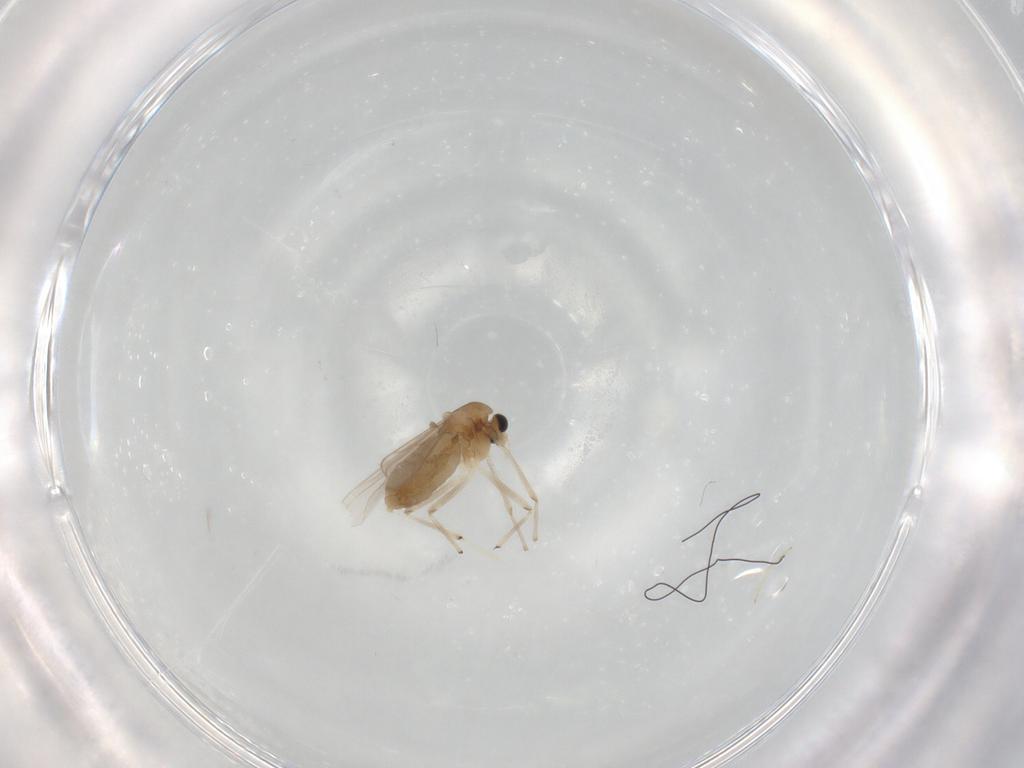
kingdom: Animalia
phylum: Arthropoda
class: Insecta
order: Diptera
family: Chironomidae
